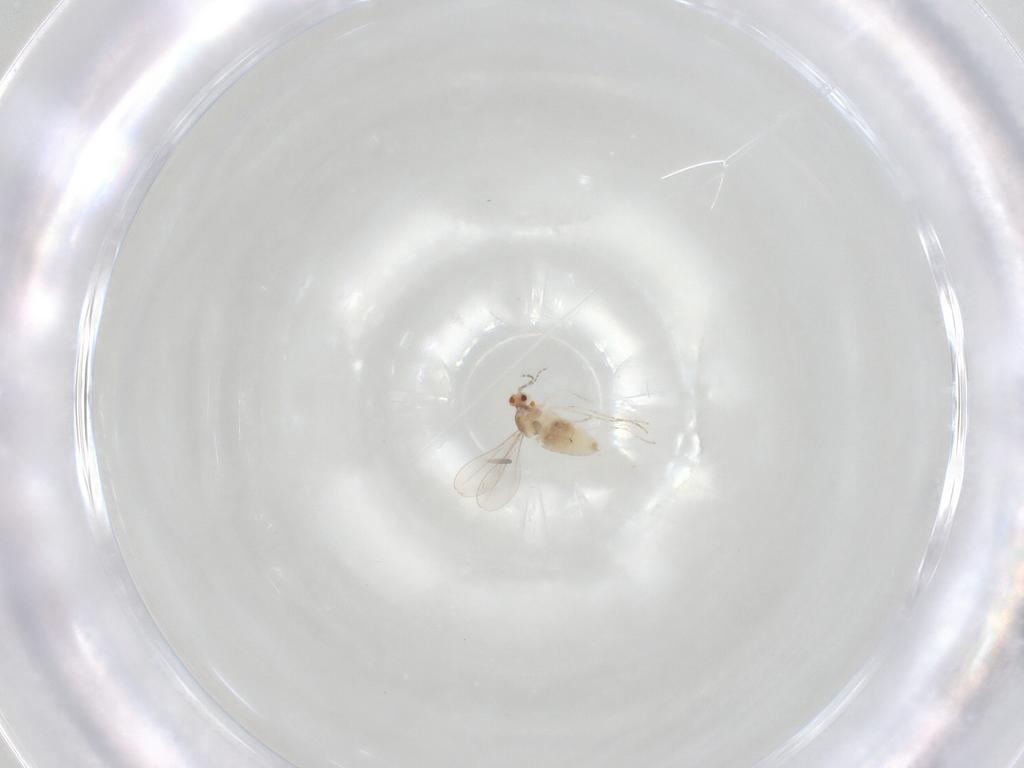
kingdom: Animalia
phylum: Arthropoda
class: Insecta
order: Diptera
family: Cecidomyiidae
